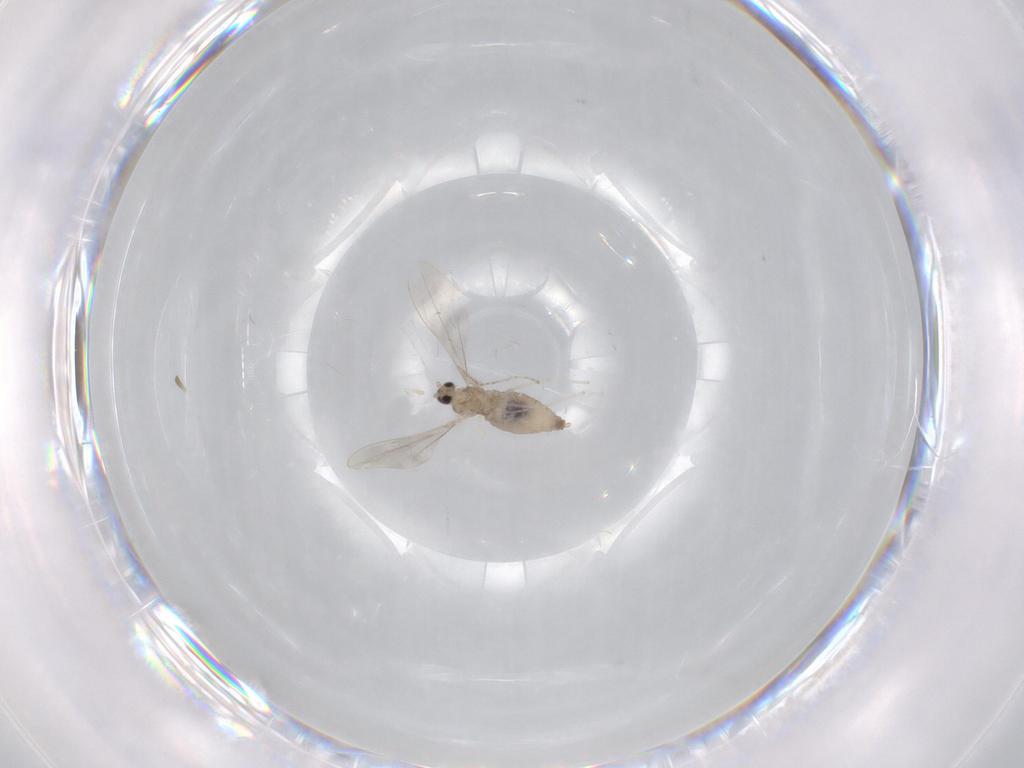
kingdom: Animalia
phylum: Arthropoda
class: Insecta
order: Diptera
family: Cecidomyiidae
